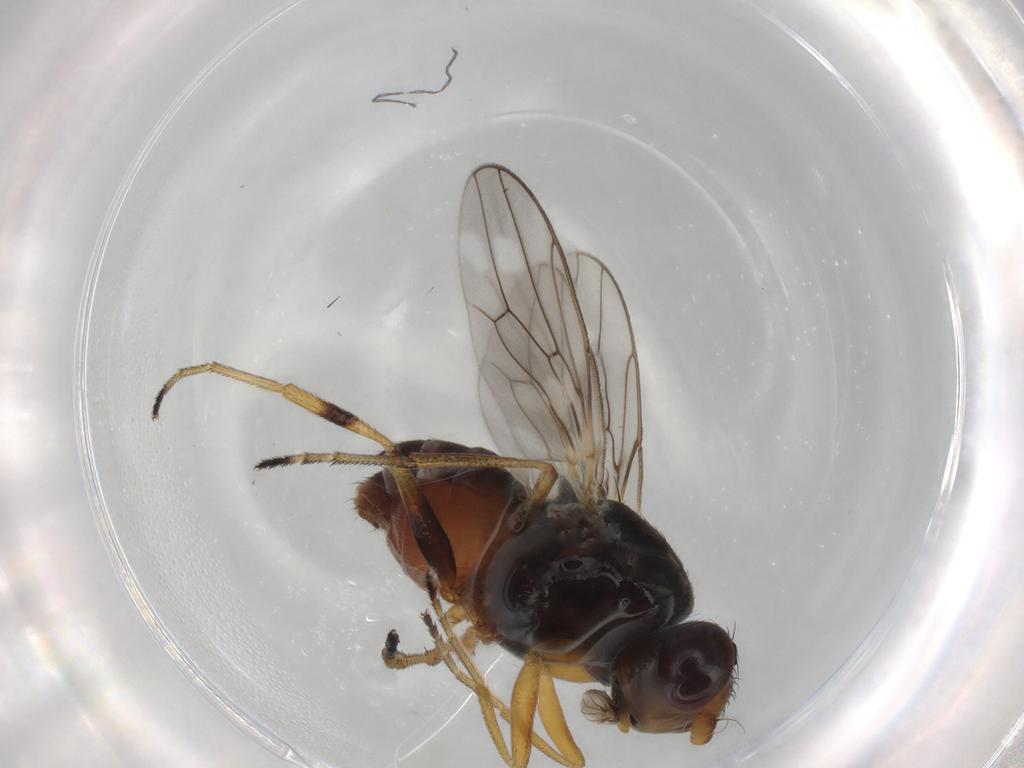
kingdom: Animalia
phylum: Arthropoda
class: Insecta
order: Diptera
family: Chloropidae
